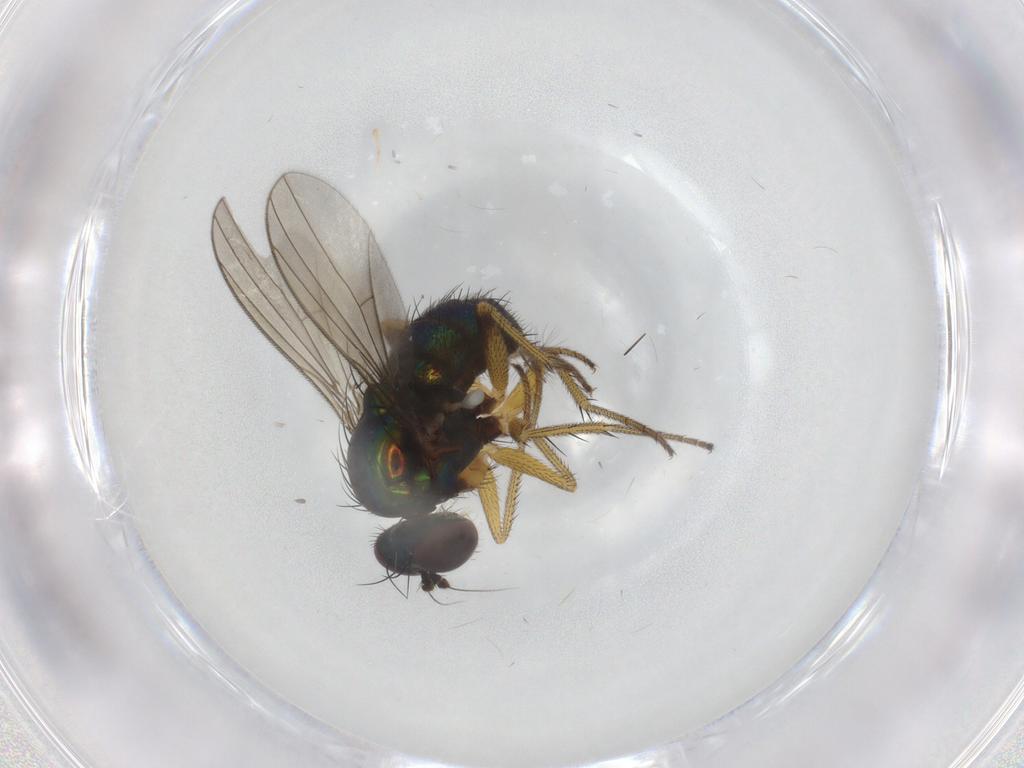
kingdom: Animalia
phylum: Arthropoda
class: Insecta
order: Diptera
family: Dolichopodidae
